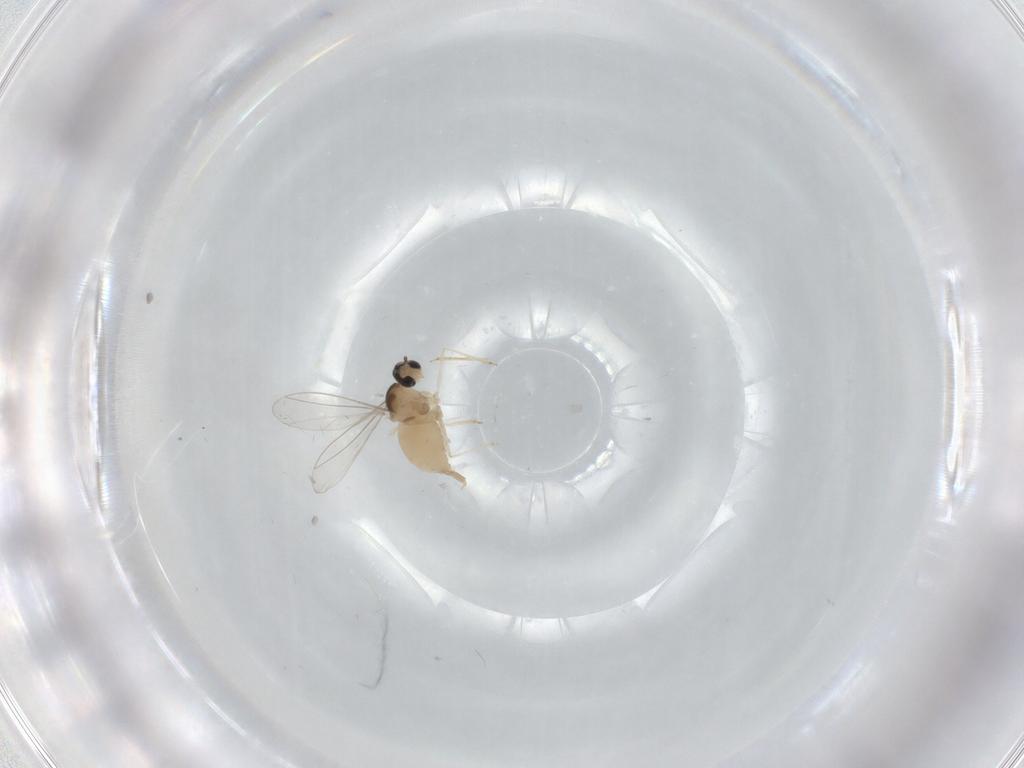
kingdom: Animalia
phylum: Arthropoda
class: Insecta
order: Diptera
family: Cecidomyiidae
